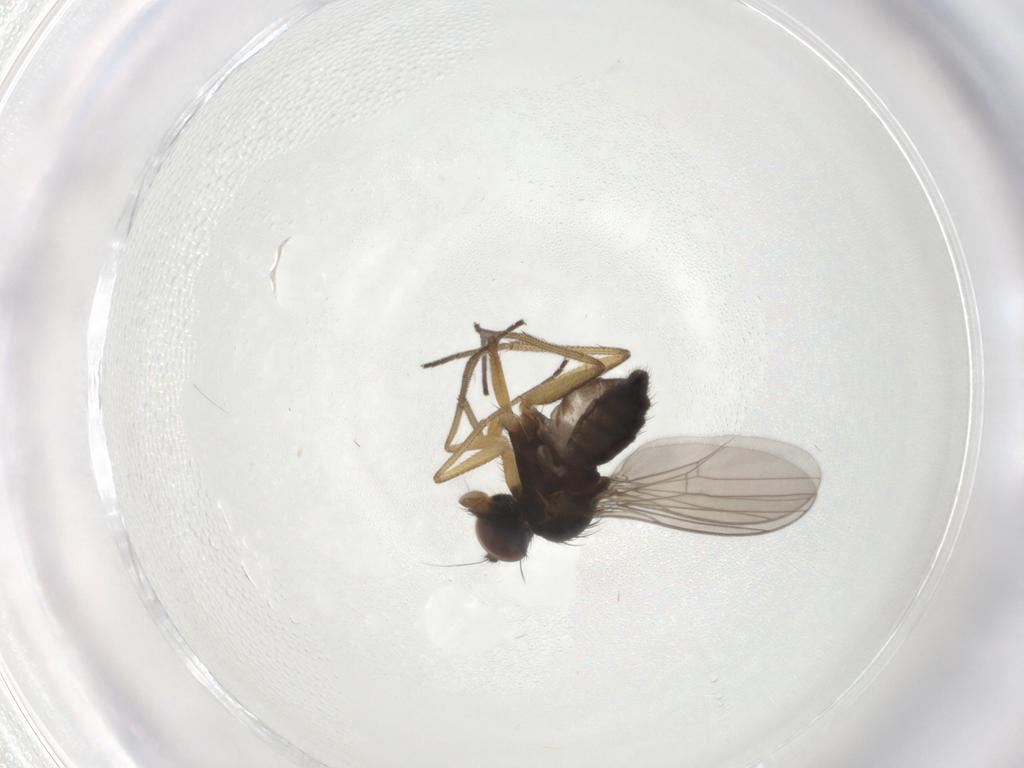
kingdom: Animalia
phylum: Arthropoda
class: Insecta
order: Diptera
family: Dolichopodidae
